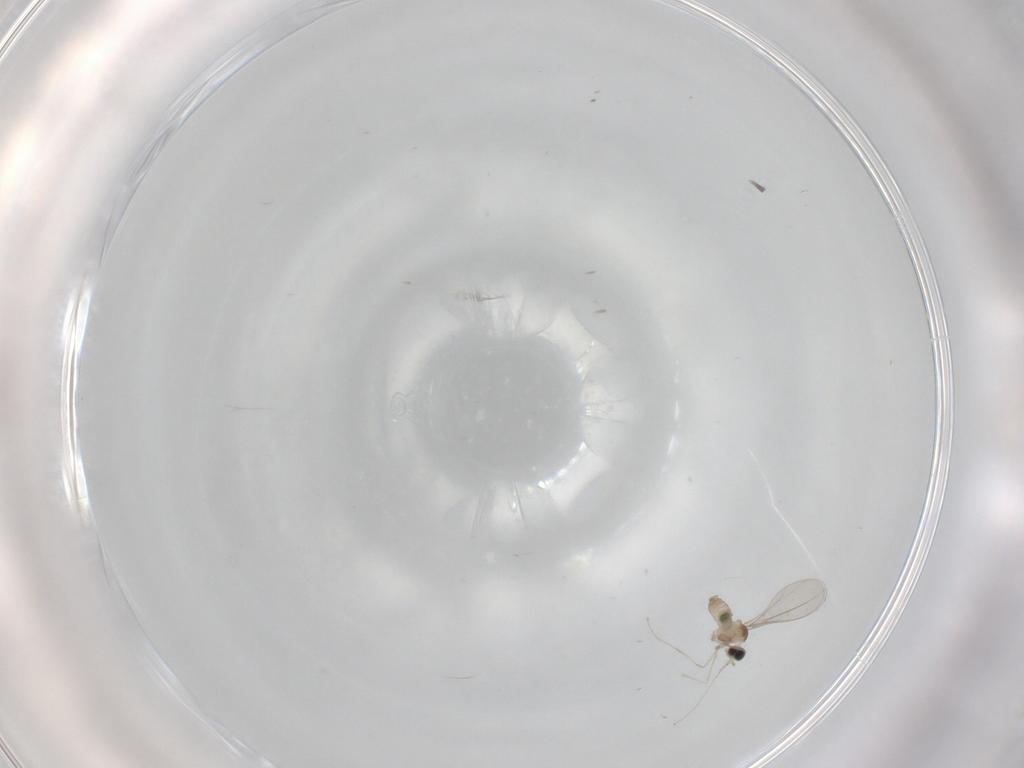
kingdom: Animalia
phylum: Arthropoda
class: Insecta
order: Diptera
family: Cecidomyiidae
